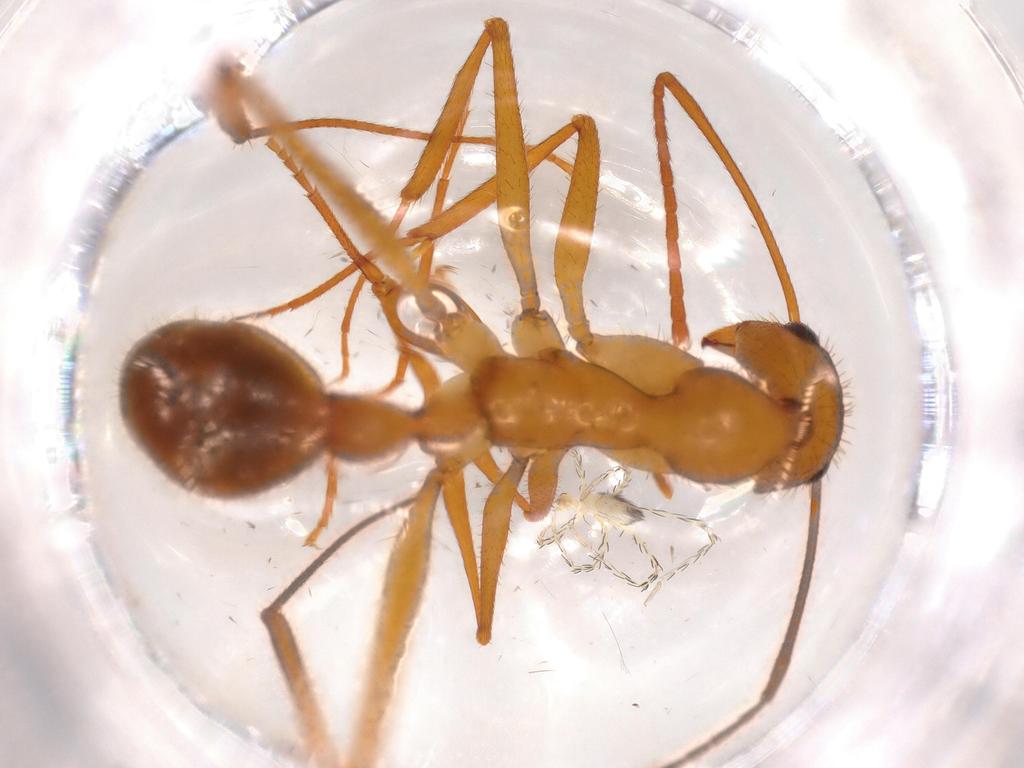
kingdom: Animalia
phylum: Arthropoda
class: Arachnida
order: Trombidiformes
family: Erythraeidae
